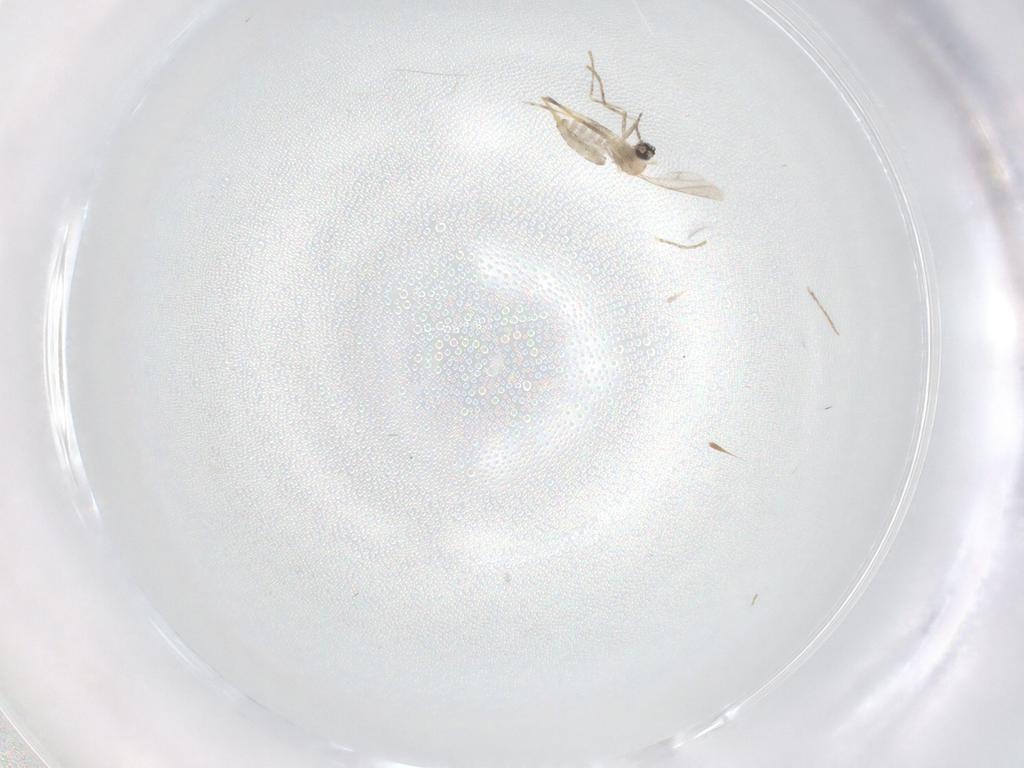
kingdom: Animalia
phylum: Arthropoda
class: Insecta
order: Diptera
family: Cecidomyiidae
